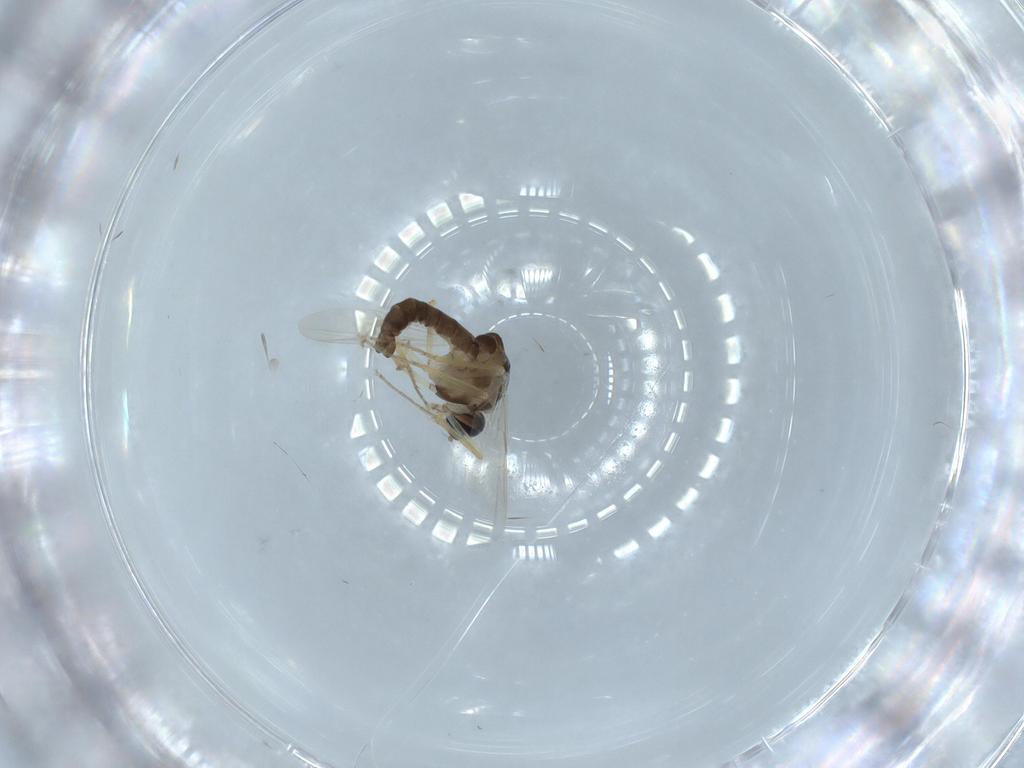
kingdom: Animalia
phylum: Arthropoda
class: Insecta
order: Diptera
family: Ceratopogonidae
